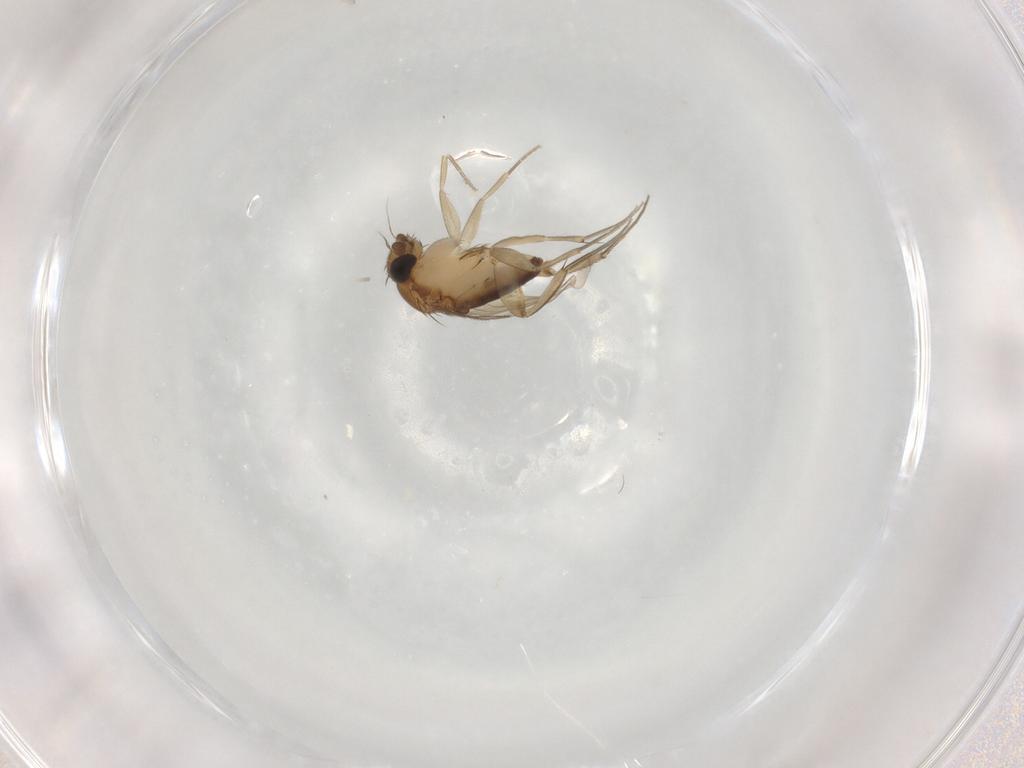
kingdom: Animalia
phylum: Arthropoda
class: Insecta
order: Diptera
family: Phoridae
